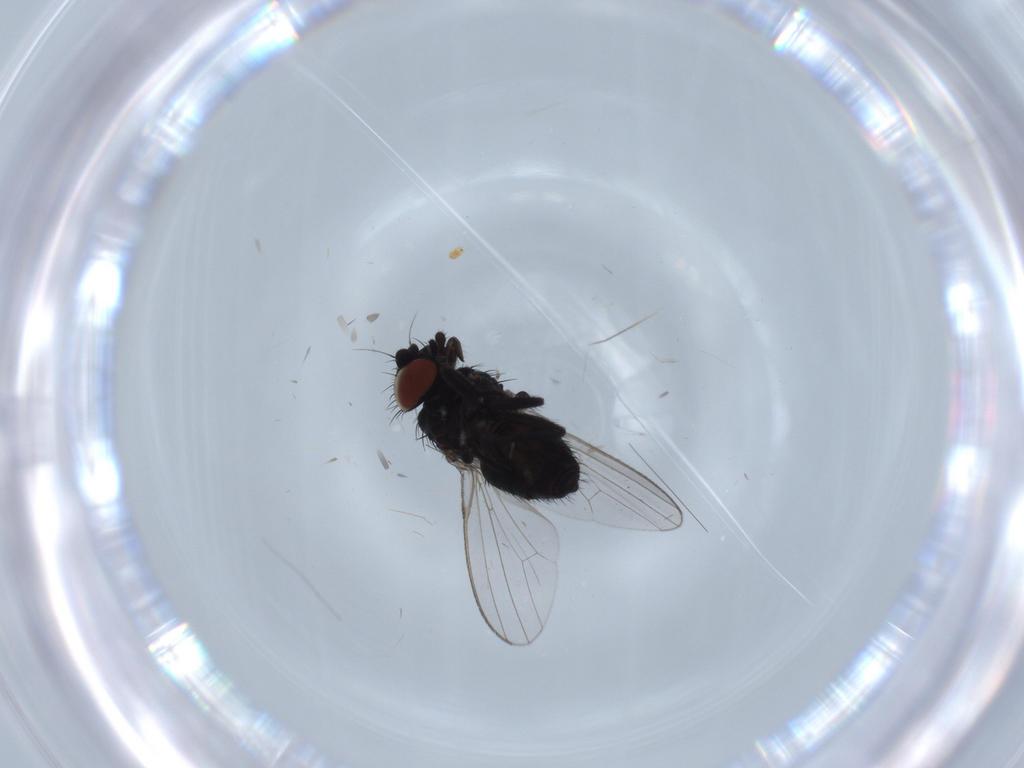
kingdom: Animalia
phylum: Arthropoda
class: Insecta
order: Diptera
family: Milichiidae
